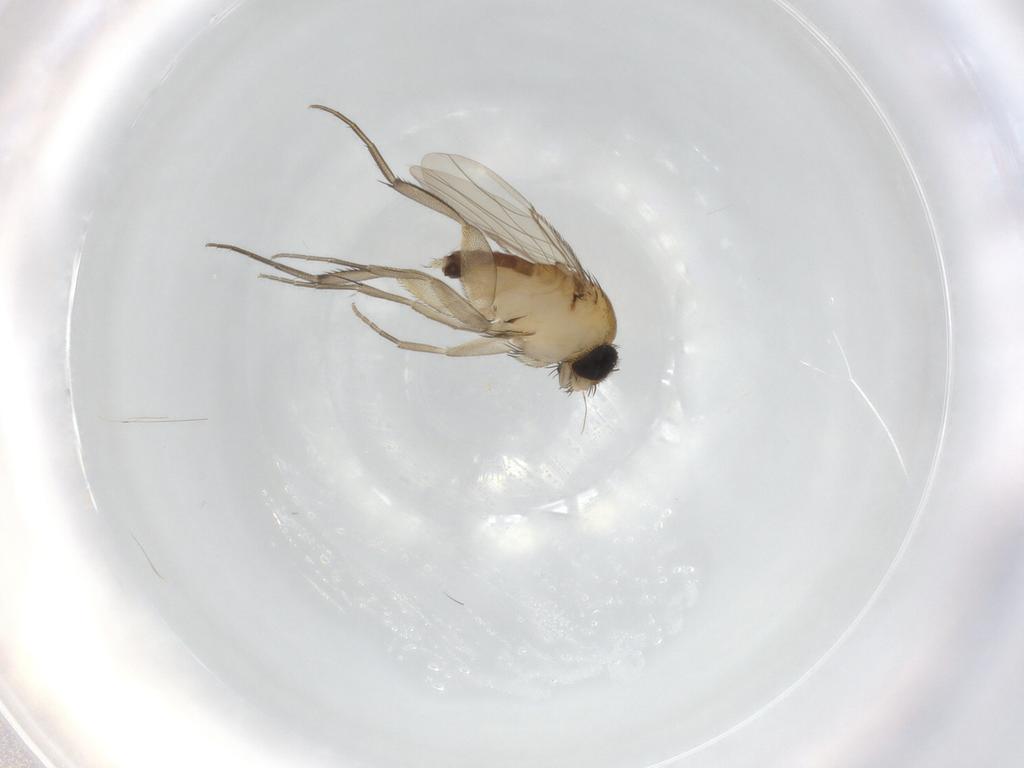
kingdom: Animalia
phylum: Arthropoda
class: Insecta
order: Diptera
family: Phoridae
